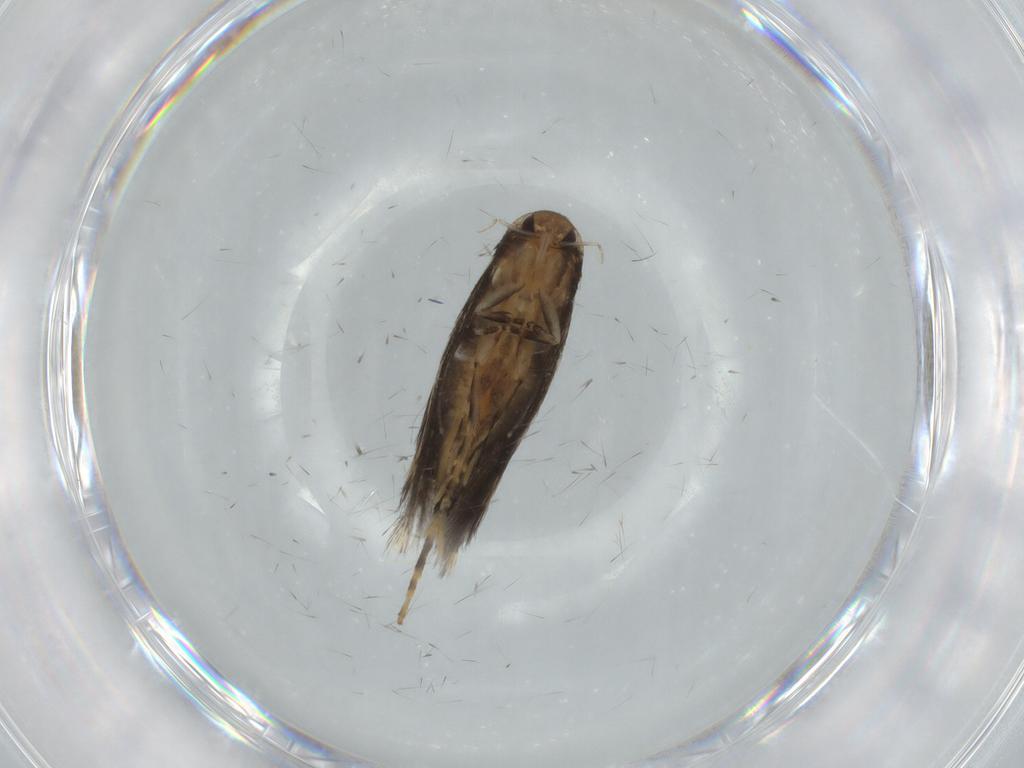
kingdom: Animalia
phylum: Arthropoda
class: Insecta
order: Lepidoptera
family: Elachistidae
